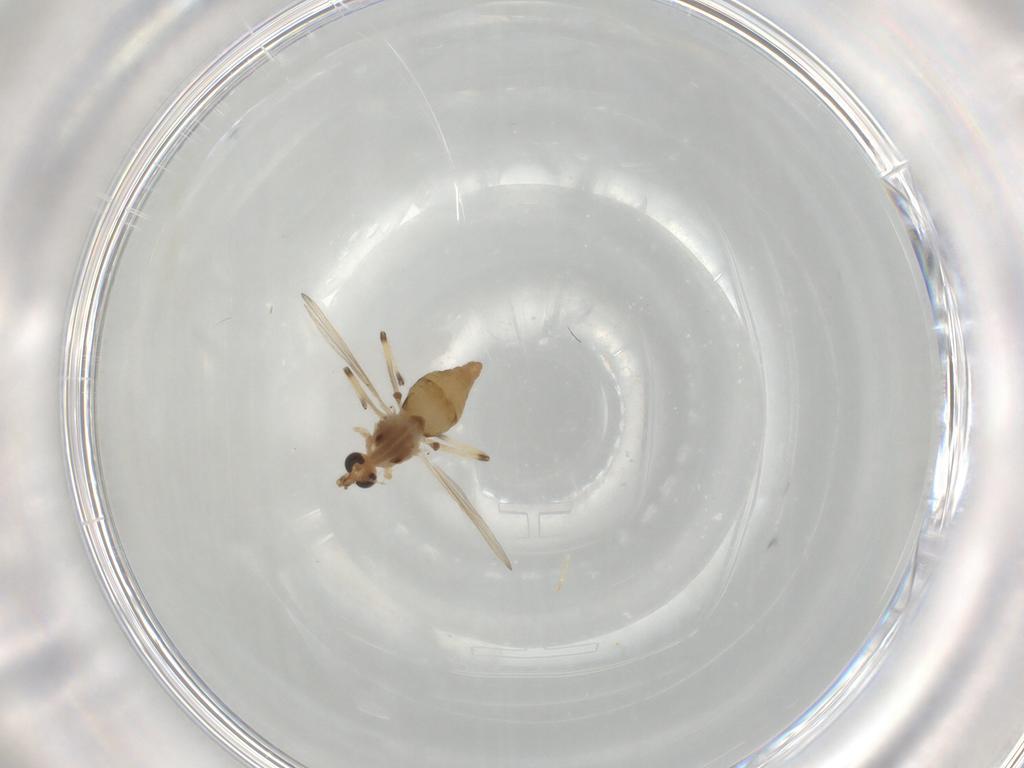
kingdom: Animalia
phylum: Arthropoda
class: Insecta
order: Diptera
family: Chironomidae
